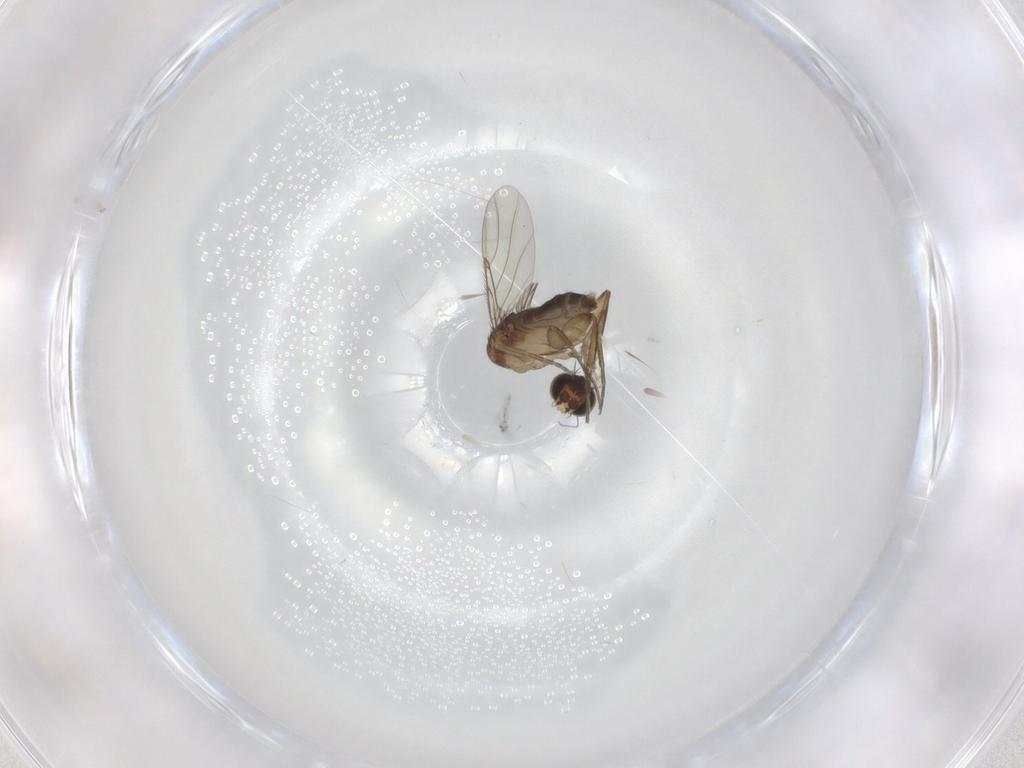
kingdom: Animalia
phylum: Arthropoda
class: Insecta
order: Diptera
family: Phoridae
